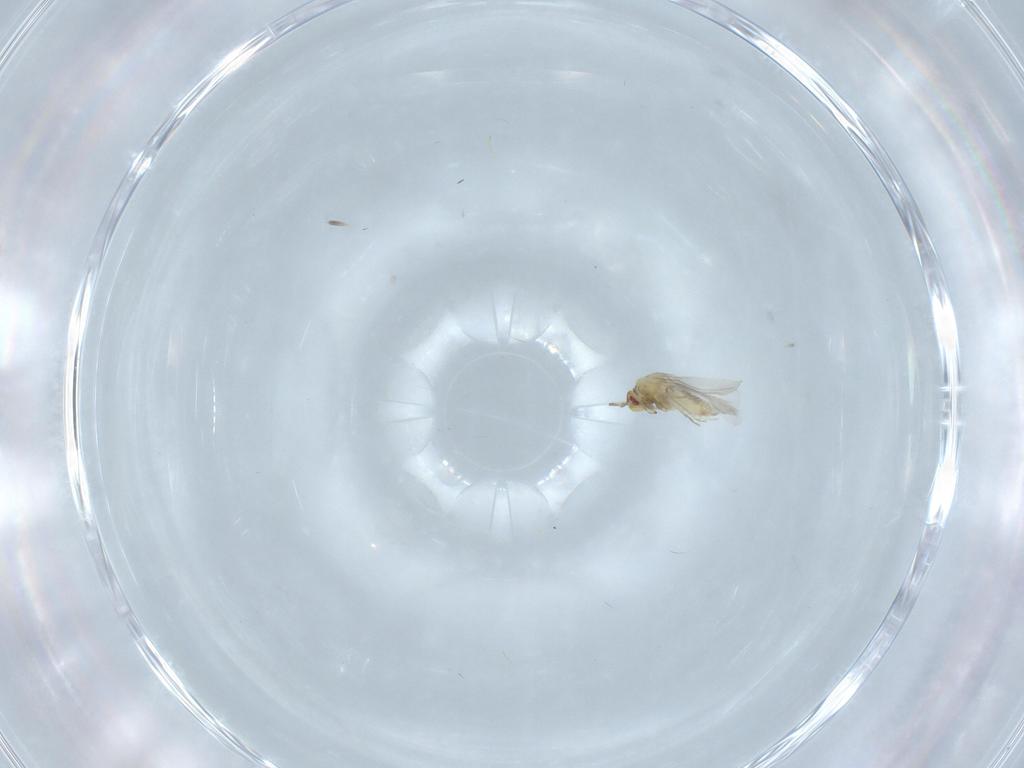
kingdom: Animalia
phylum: Arthropoda
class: Insecta
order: Hemiptera
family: Aleyrodidae
